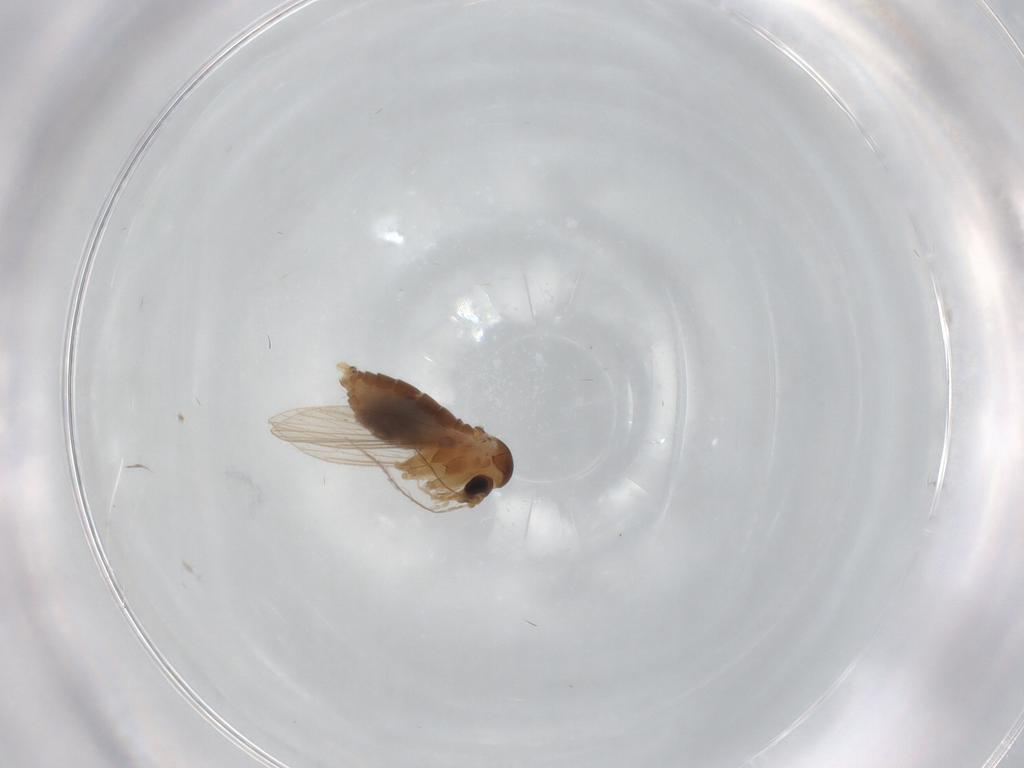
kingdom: Animalia
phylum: Arthropoda
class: Insecta
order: Diptera
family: Psychodidae
